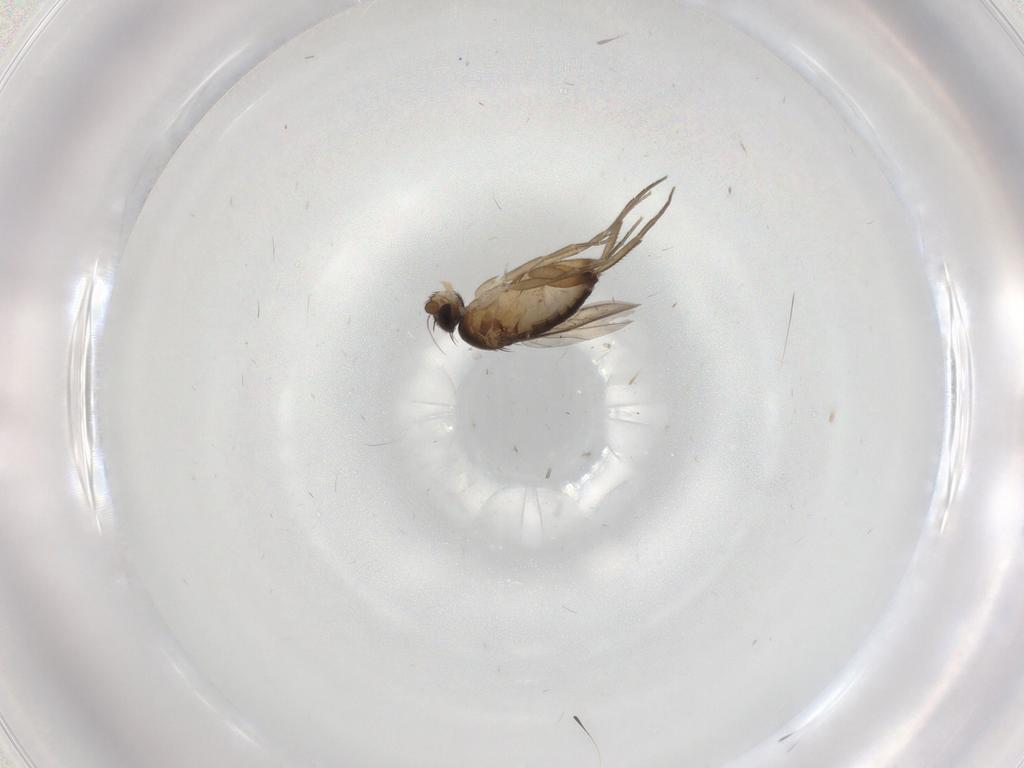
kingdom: Animalia
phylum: Arthropoda
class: Insecta
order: Diptera
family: Phoridae
